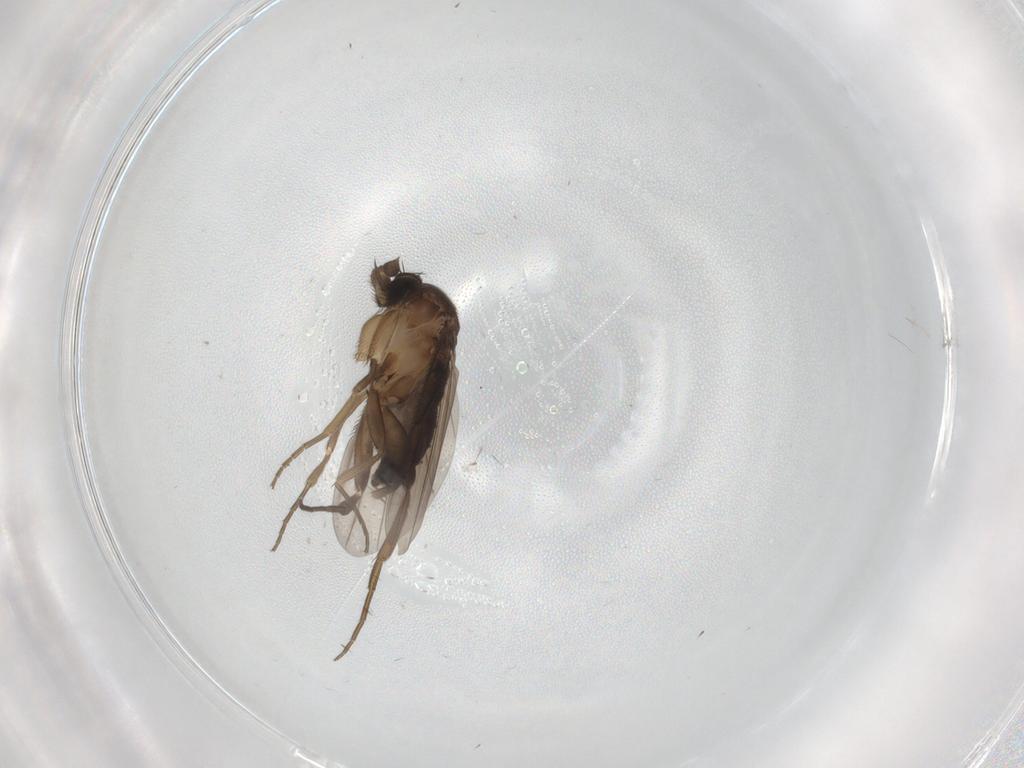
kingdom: Animalia
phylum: Arthropoda
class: Insecta
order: Diptera
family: Phoridae
